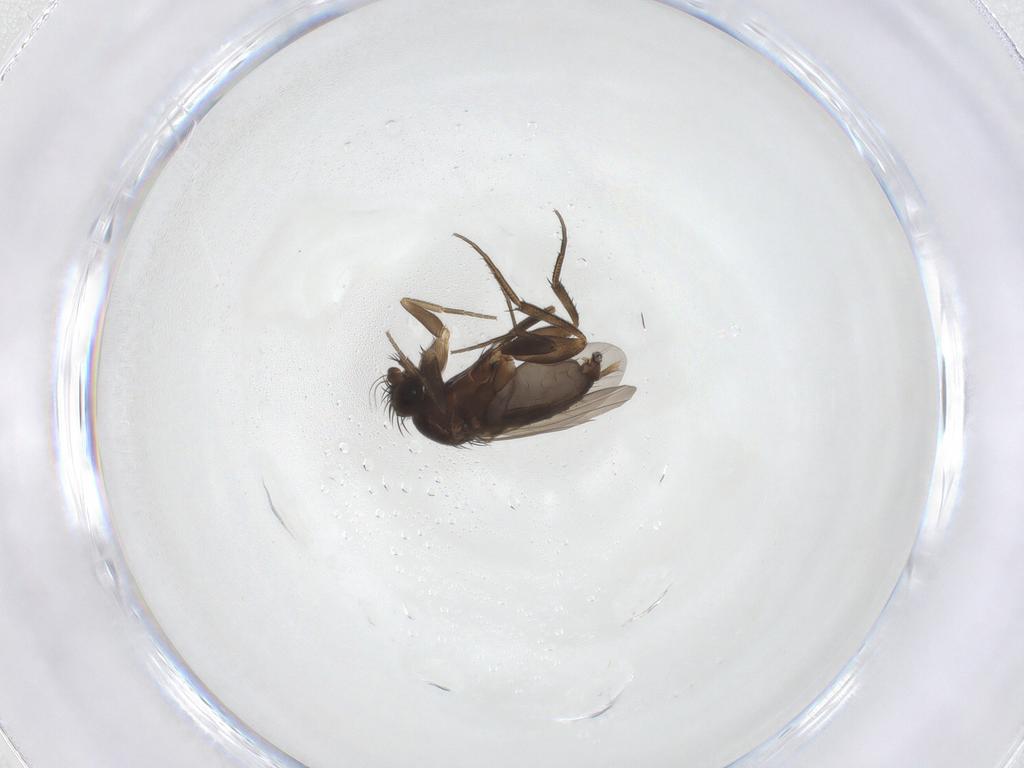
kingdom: Animalia
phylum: Arthropoda
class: Insecta
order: Diptera
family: Phoridae
